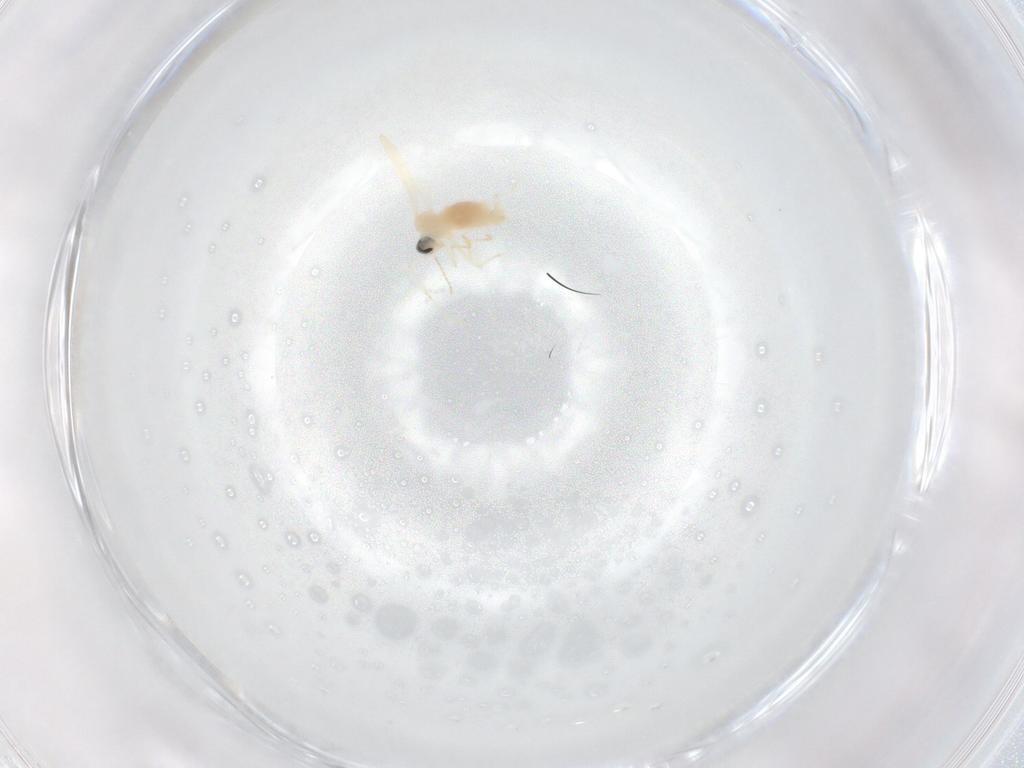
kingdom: Animalia
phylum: Arthropoda
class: Insecta
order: Diptera
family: Cecidomyiidae
